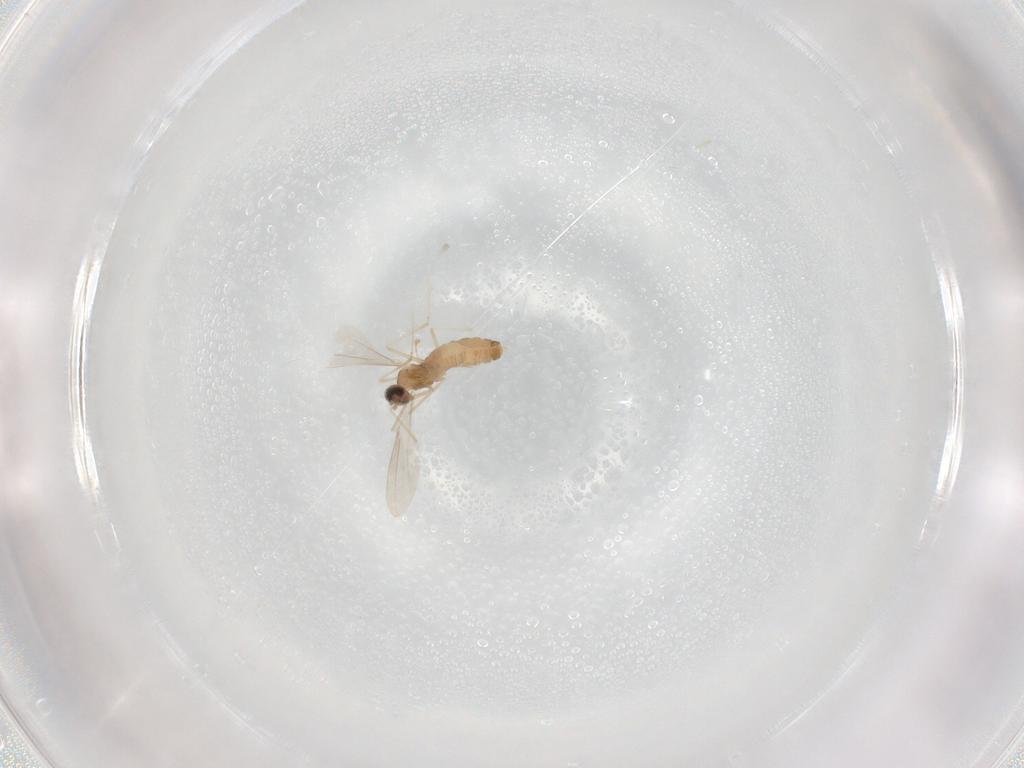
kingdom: Animalia
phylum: Arthropoda
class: Insecta
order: Diptera
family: Cecidomyiidae
